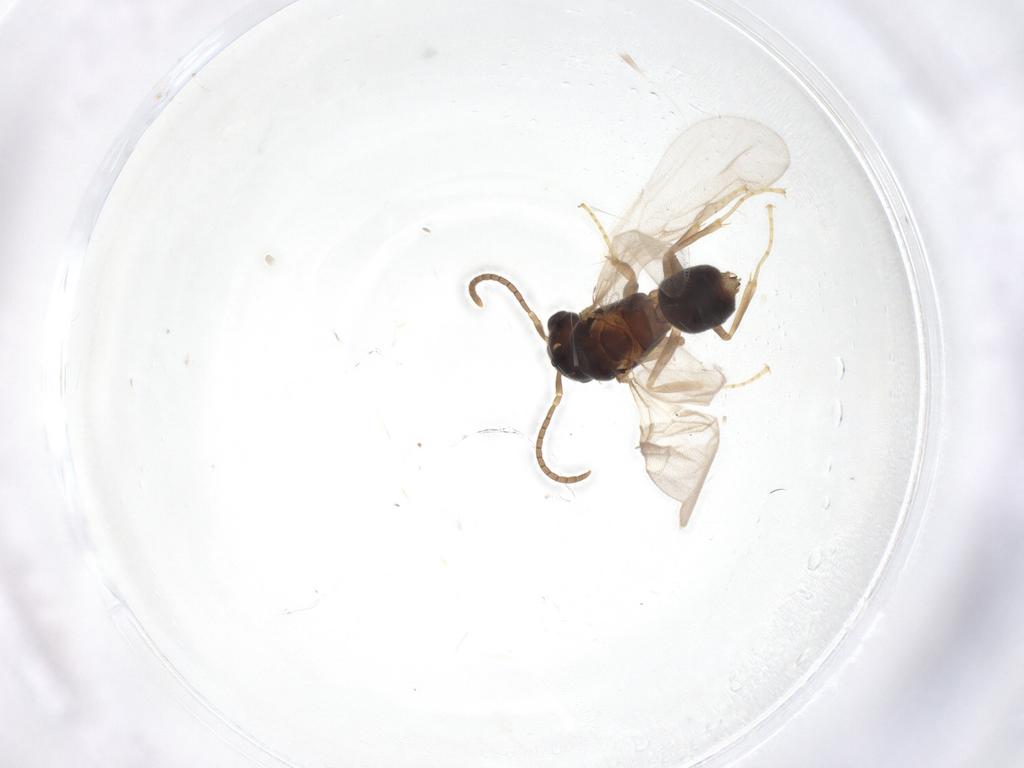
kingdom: Animalia
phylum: Arthropoda
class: Insecta
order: Hymenoptera
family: Formicidae
